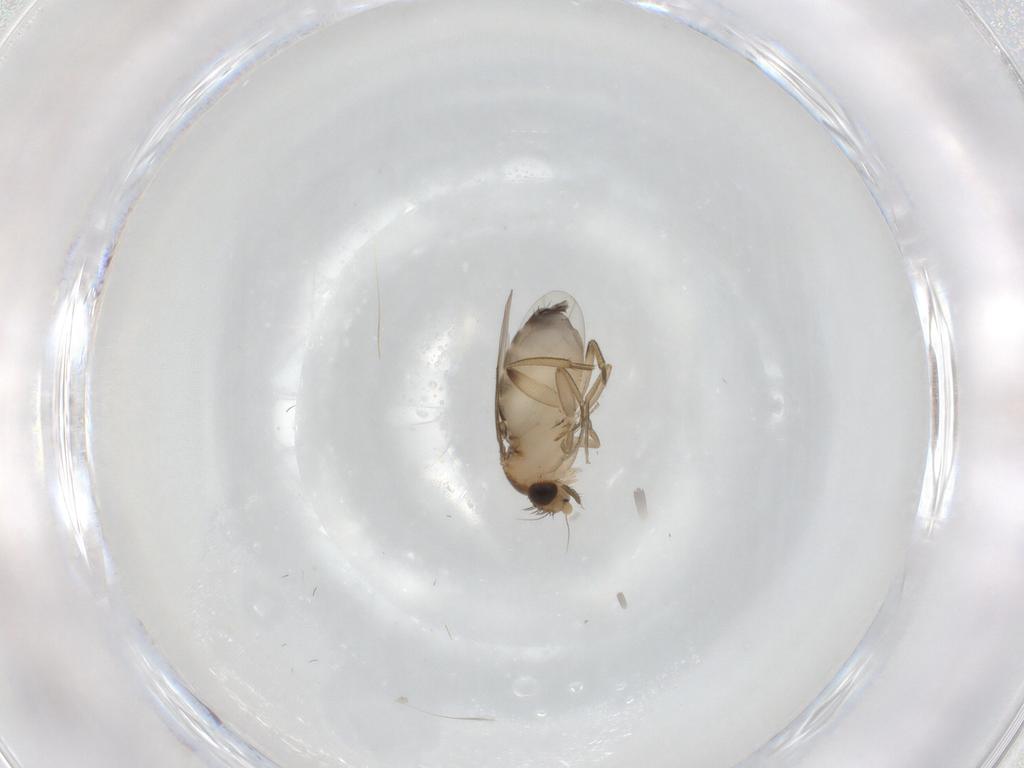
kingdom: Animalia
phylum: Arthropoda
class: Insecta
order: Diptera
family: Phoridae
